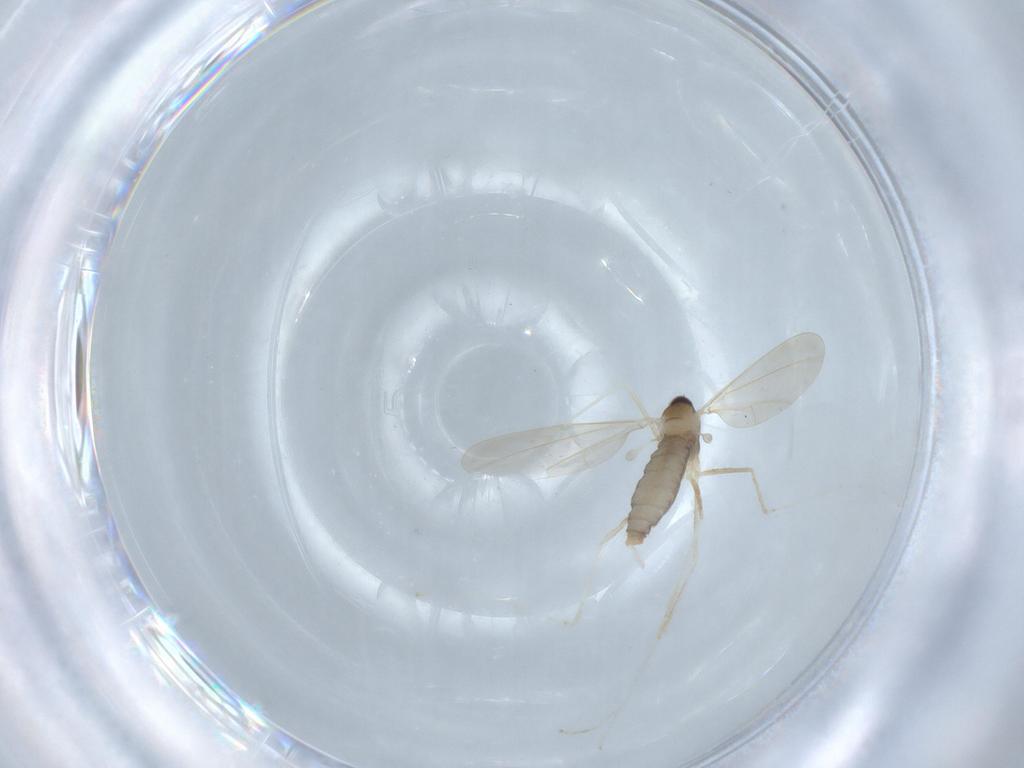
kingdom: Animalia
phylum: Arthropoda
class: Insecta
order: Diptera
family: Cecidomyiidae
